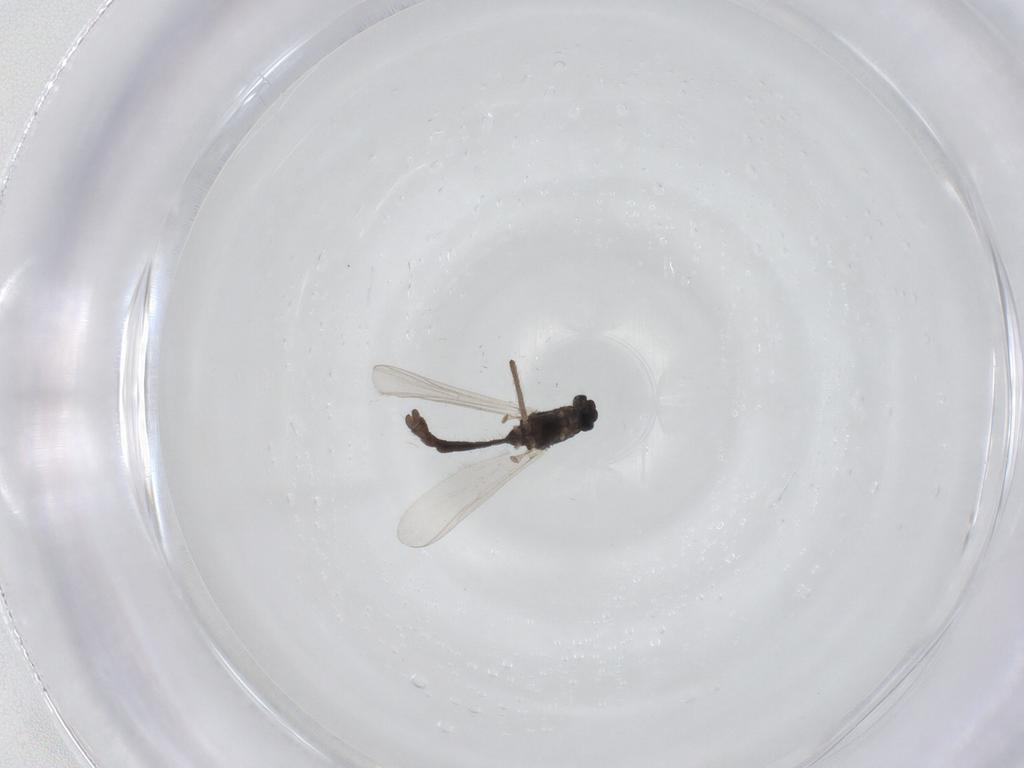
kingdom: Animalia
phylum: Arthropoda
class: Insecta
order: Diptera
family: Chironomidae
